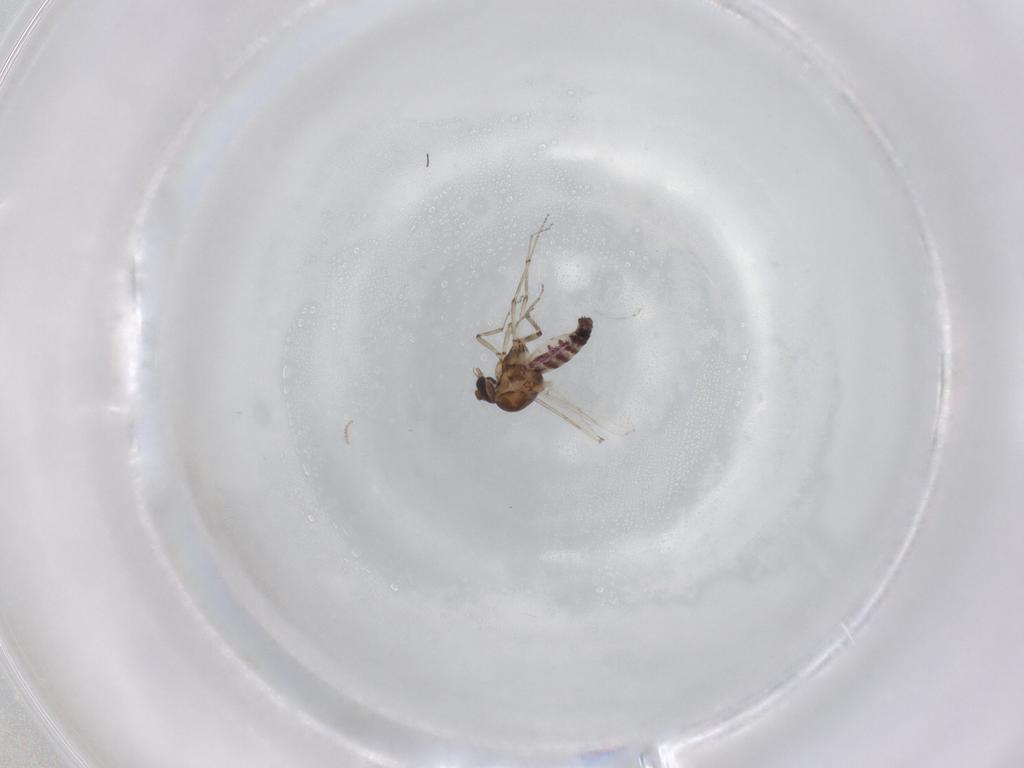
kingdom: Animalia
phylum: Arthropoda
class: Insecta
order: Diptera
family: Ceratopogonidae
